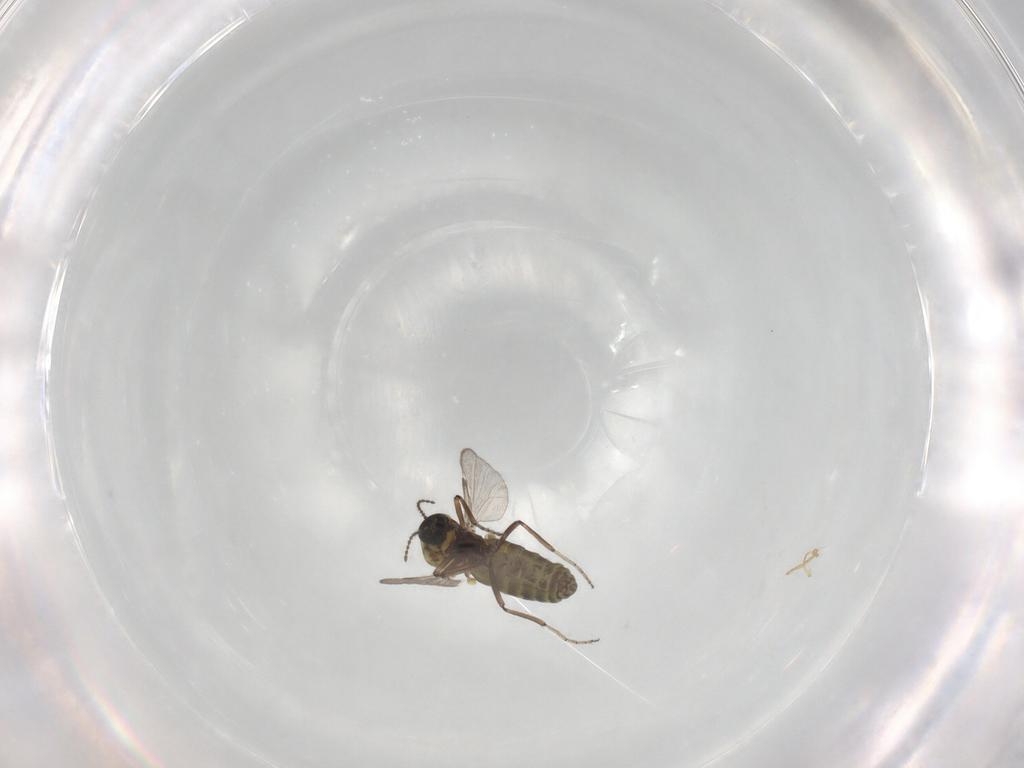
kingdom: Animalia
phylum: Arthropoda
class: Insecta
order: Diptera
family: Ceratopogonidae
